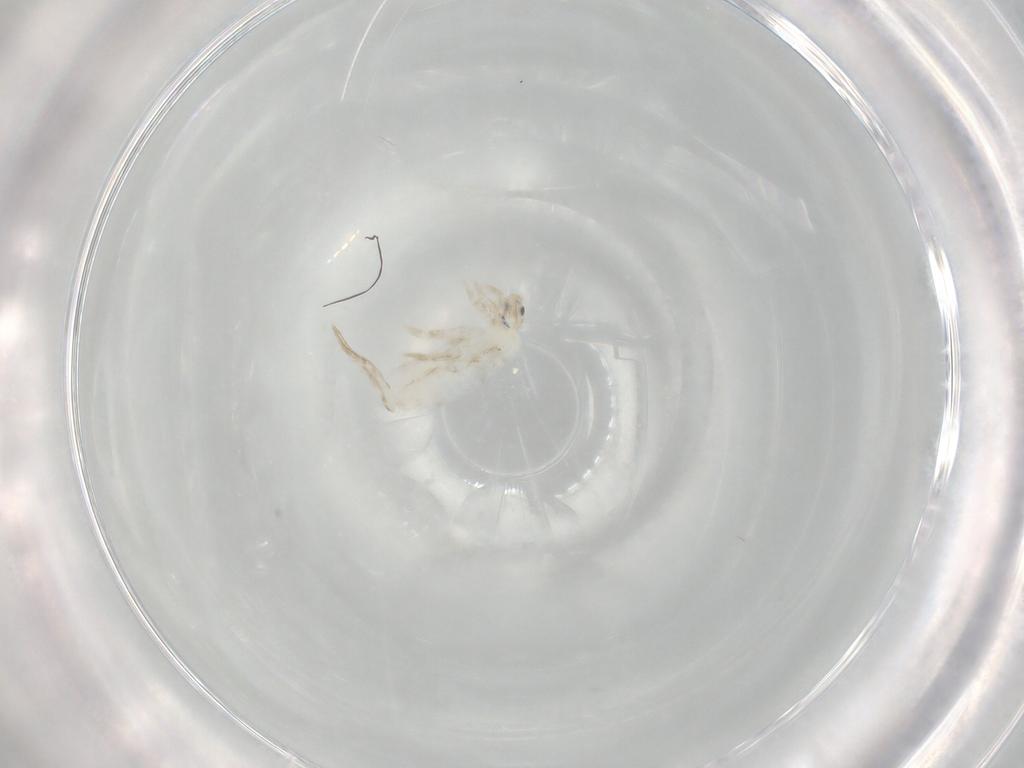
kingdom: Animalia
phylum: Arthropoda
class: Collembola
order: Entomobryomorpha
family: Entomobryidae
